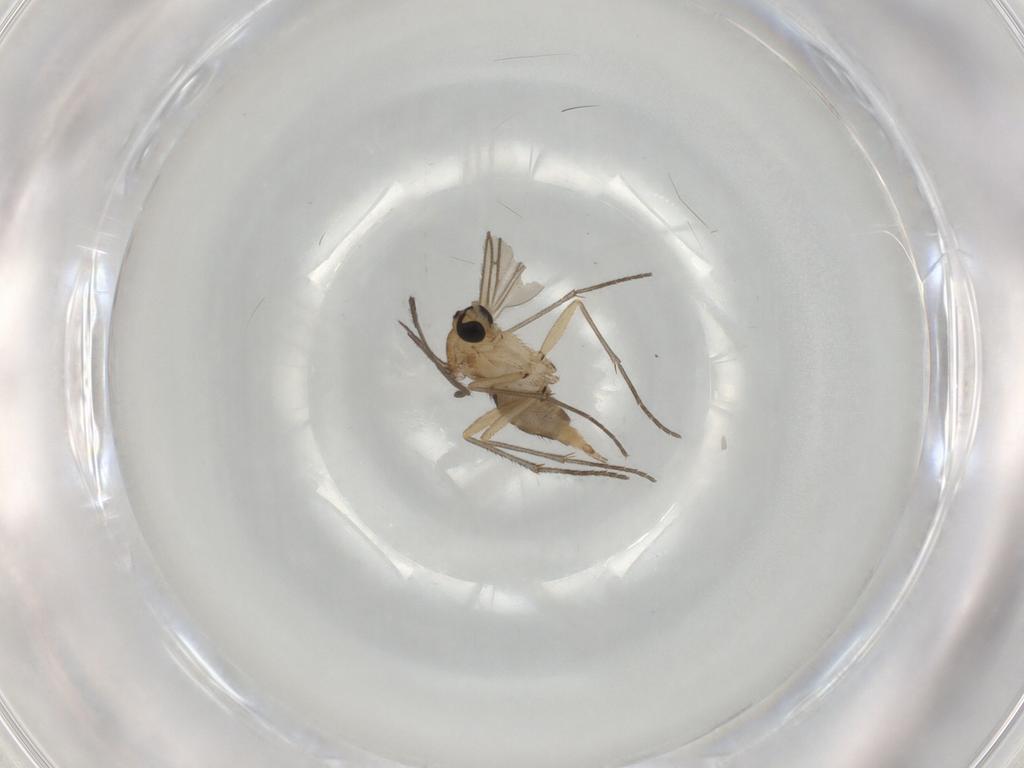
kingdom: Animalia
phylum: Arthropoda
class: Insecta
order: Diptera
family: Sciaridae
